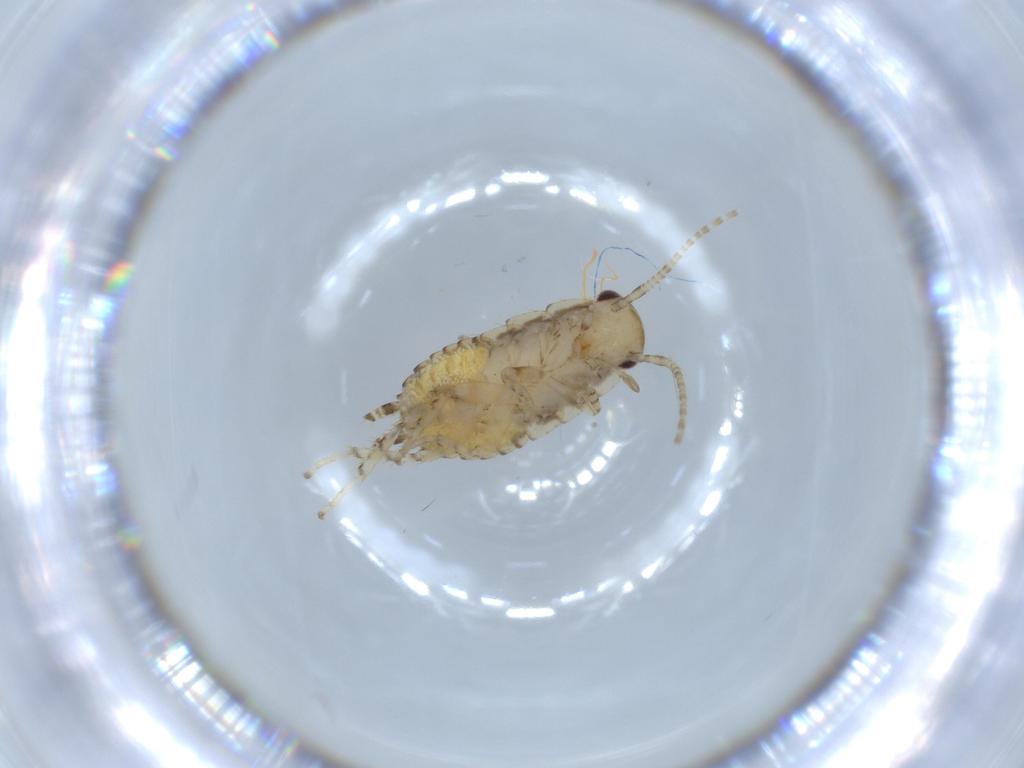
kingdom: Animalia
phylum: Arthropoda
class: Insecta
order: Blattodea
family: Ectobiidae
